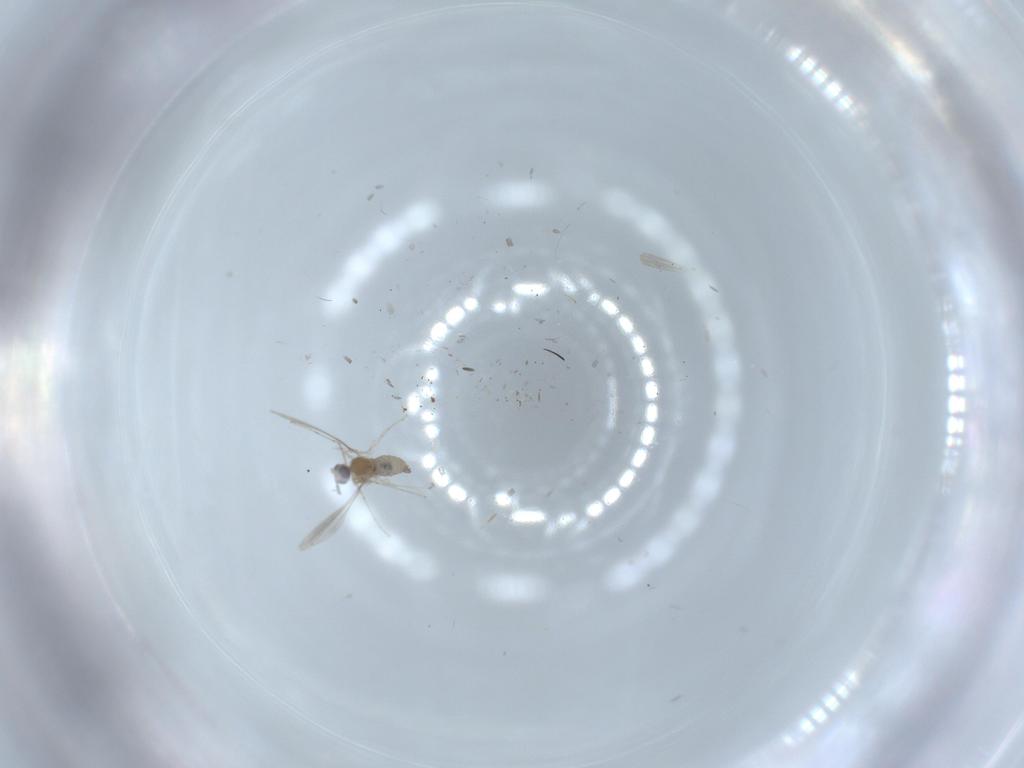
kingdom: Animalia
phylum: Arthropoda
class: Insecta
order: Diptera
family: Cecidomyiidae
